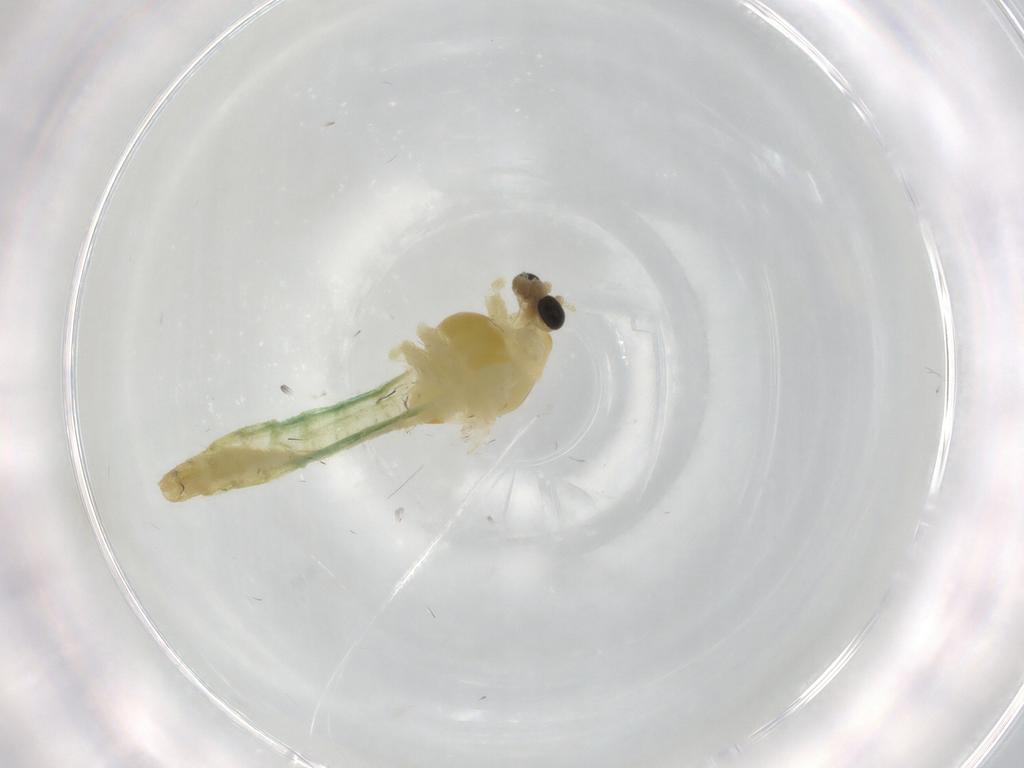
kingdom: Animalia
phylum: Arthropoda
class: Insecta
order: Diptera
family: Chironomidae
